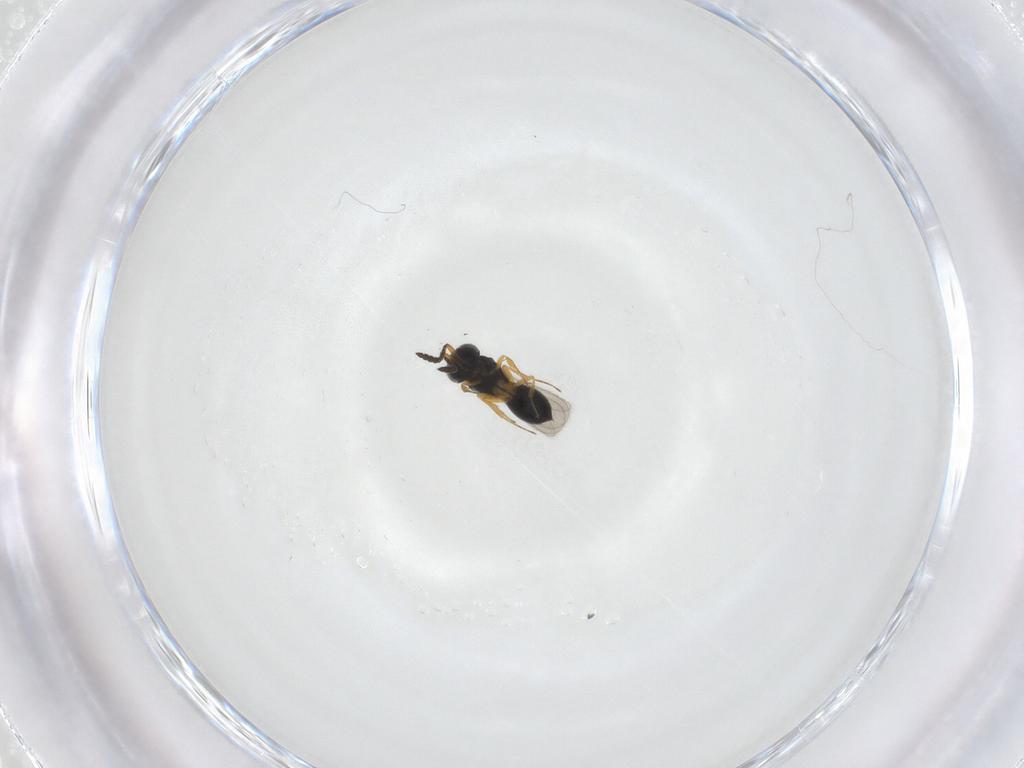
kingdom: Animalia
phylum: Arthropoda
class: Insecta
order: Hymenoptera
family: Scelionidae
